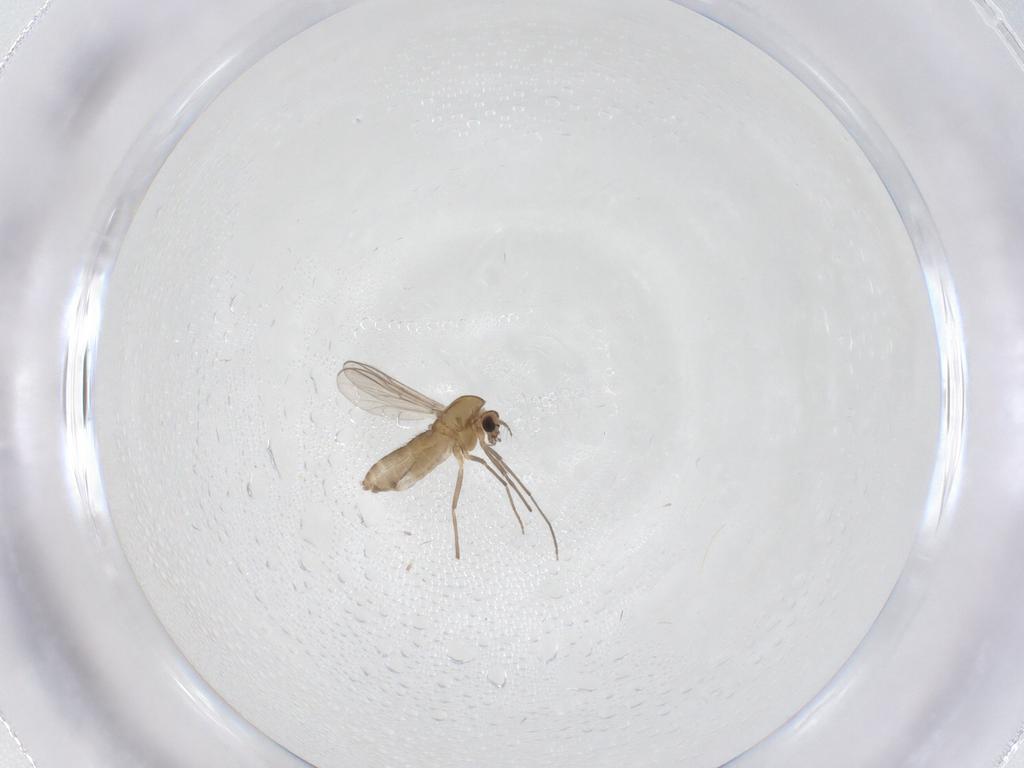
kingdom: Animalia
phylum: Arthropoda
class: Insecta
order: Diptera
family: Chironomidae
